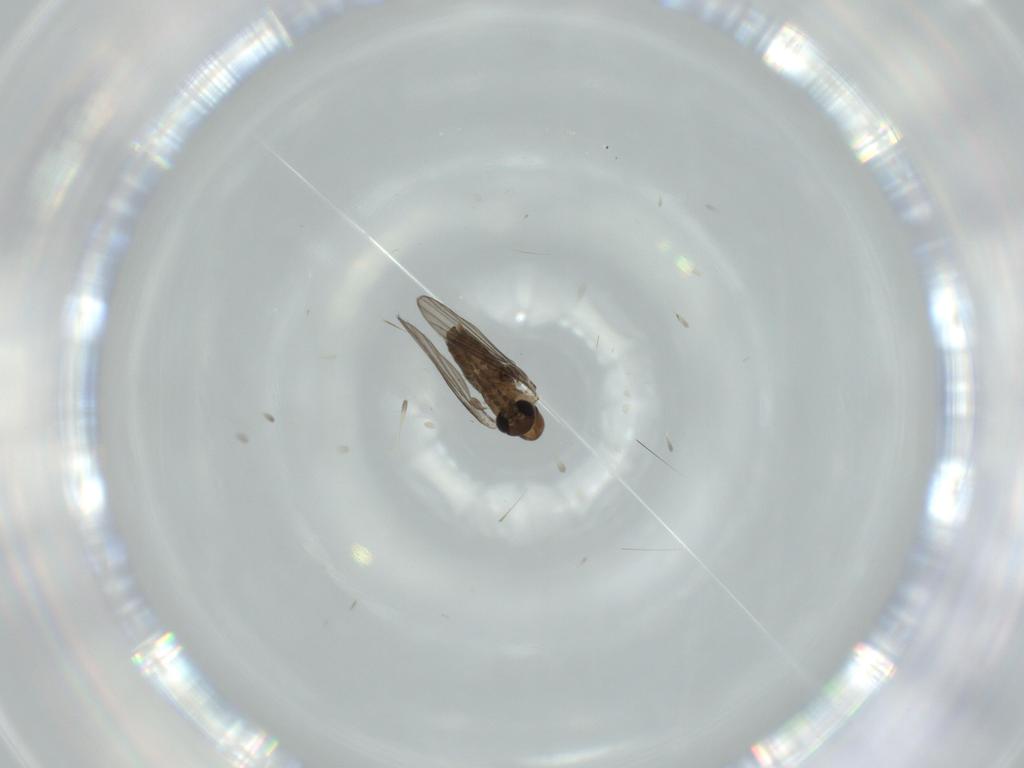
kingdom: Animalia
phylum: Arthropoda
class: Insecta
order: Diptera
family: Psychodidae
